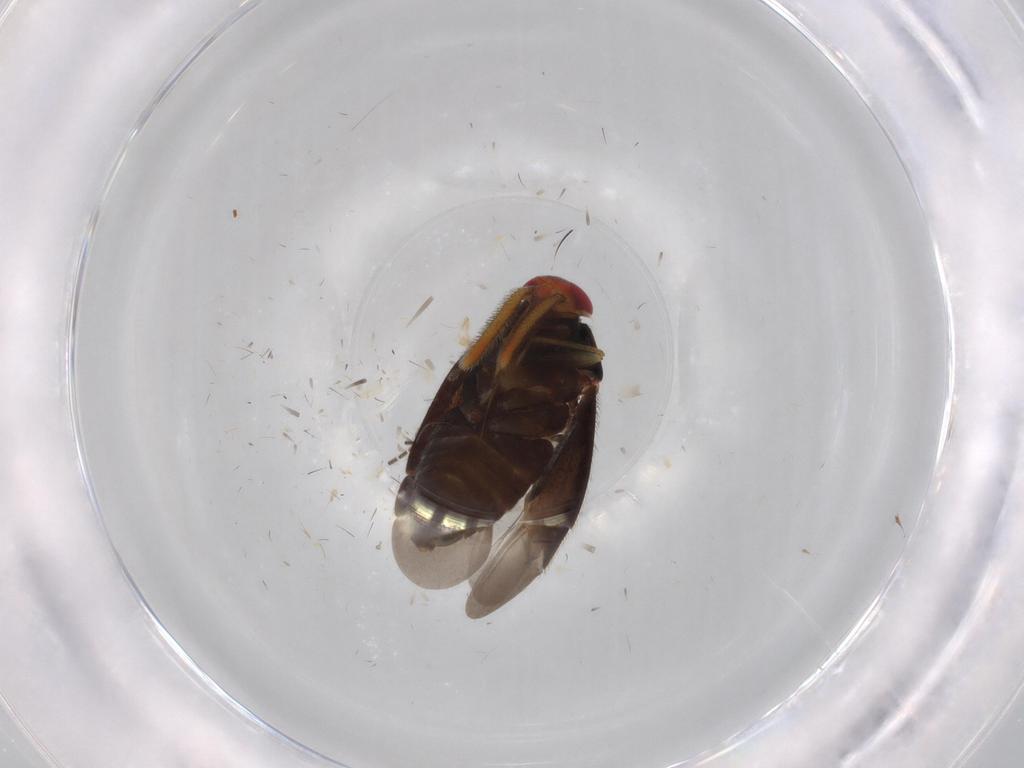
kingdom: Animalia
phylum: Arthropoda
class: Insecta
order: Hemiptera
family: Miridae
